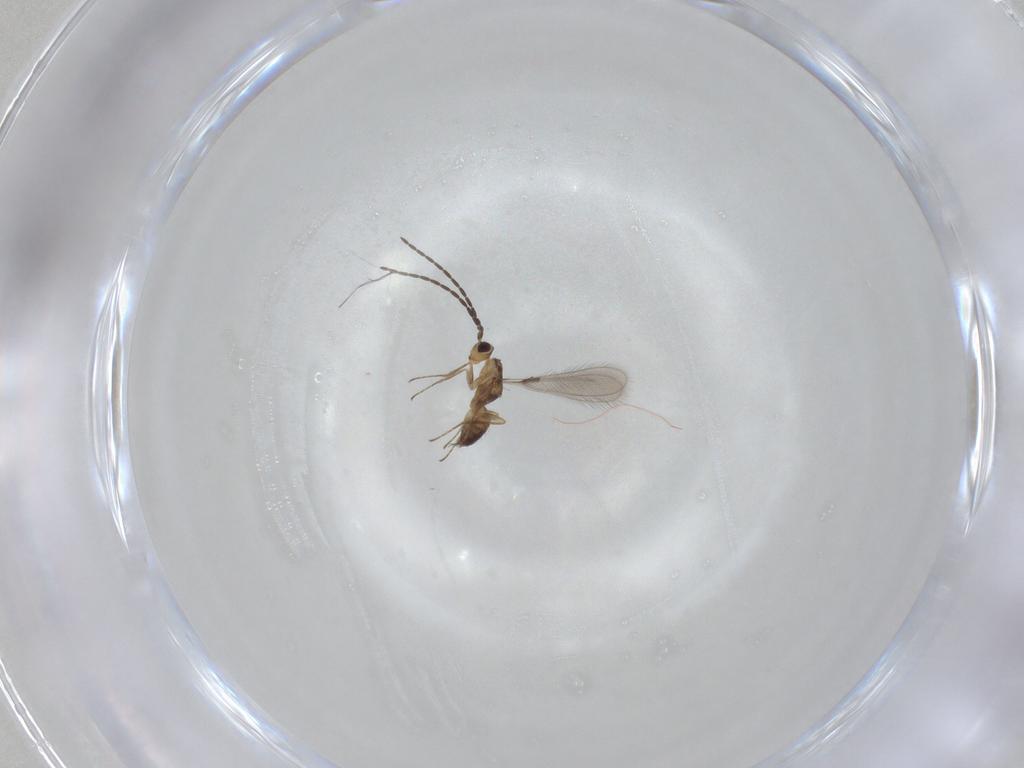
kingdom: Animalia
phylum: Arthropoda
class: Insecta
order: Hymenoptera
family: Mymaridae
